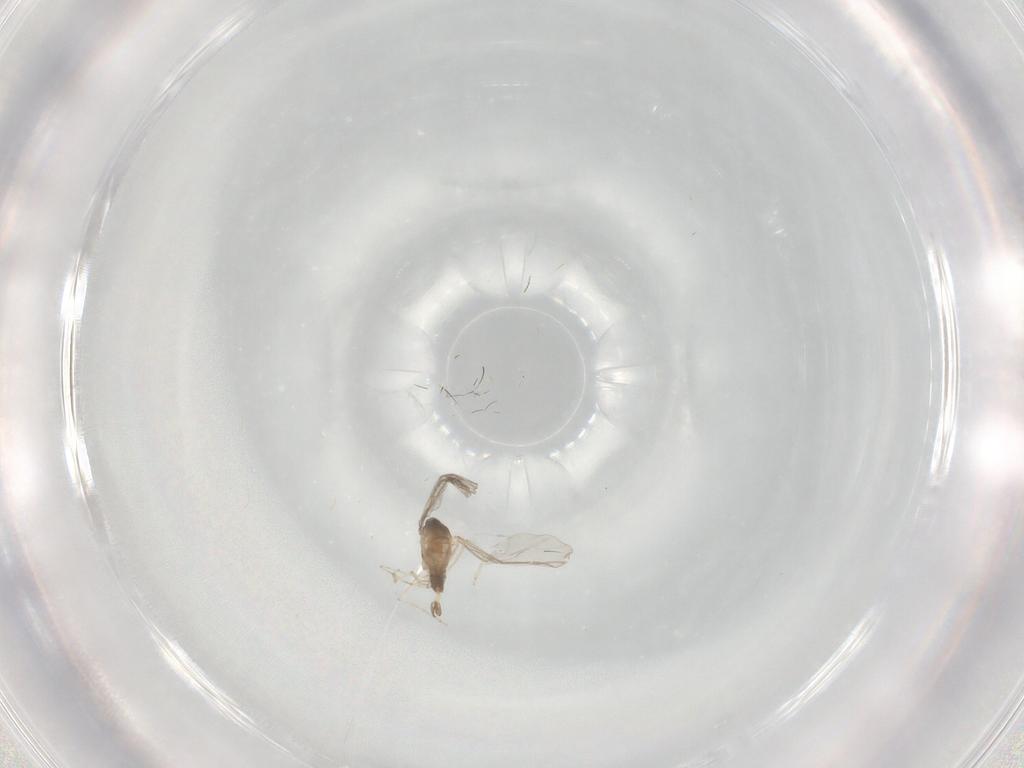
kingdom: Animalia
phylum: Arthropoda
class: Insecta
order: Diptera
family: Cecidomyiidae
